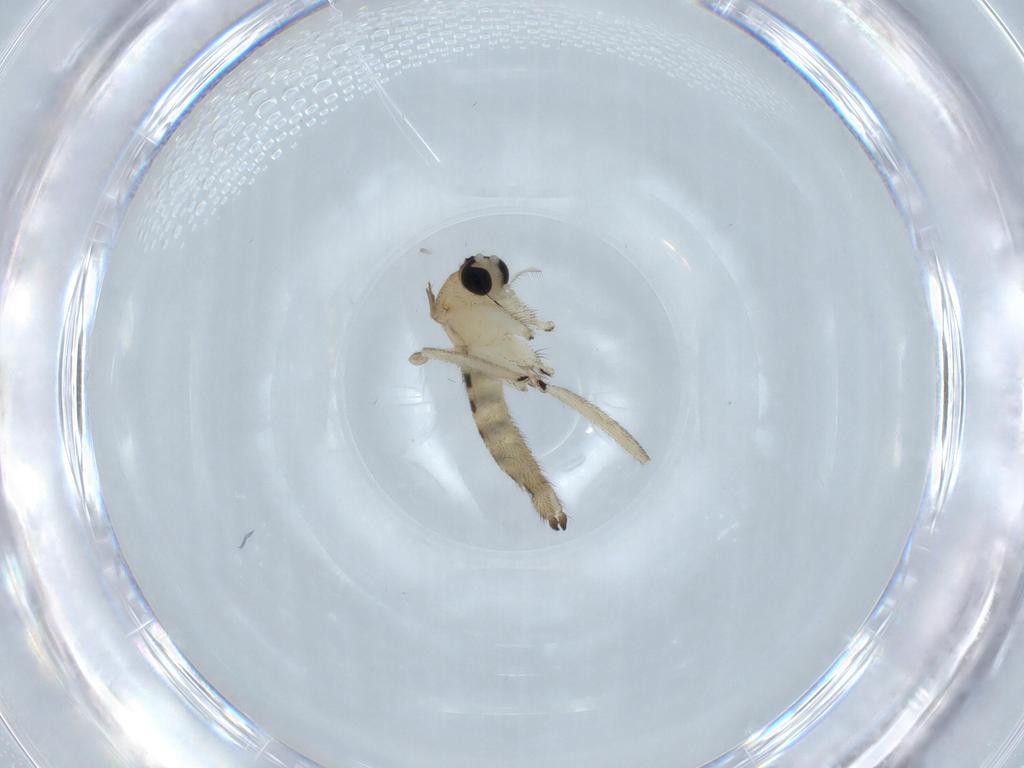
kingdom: Animalia
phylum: Arthropoda
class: Insecta
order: Diptera
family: Sciaridae
